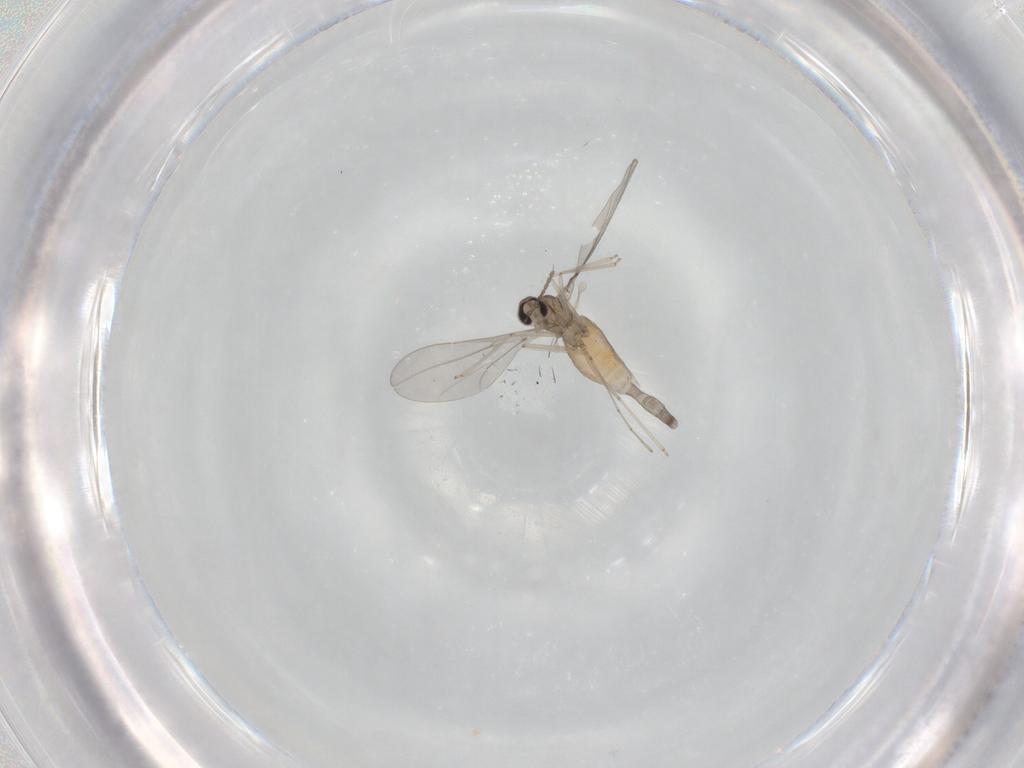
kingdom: Animalia
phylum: Arthropoda
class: Insecta
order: Diptera
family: Cecidomyiidae
